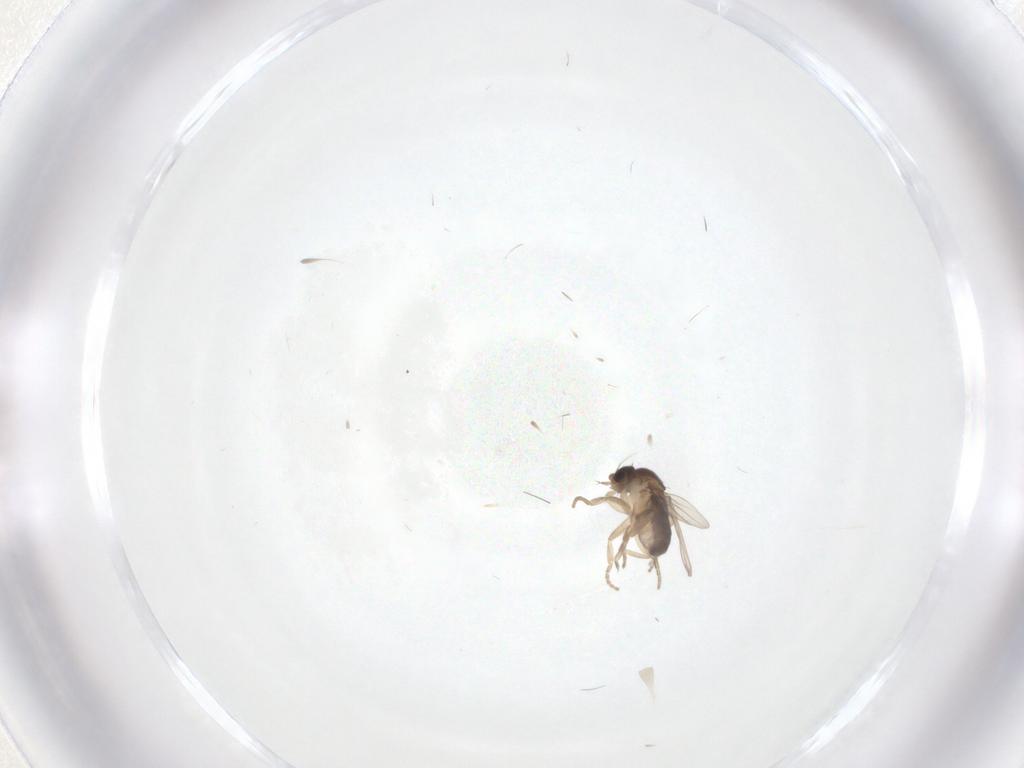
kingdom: Animalia
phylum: Arthropoda
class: Insecta
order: Diptera
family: Phoridae
